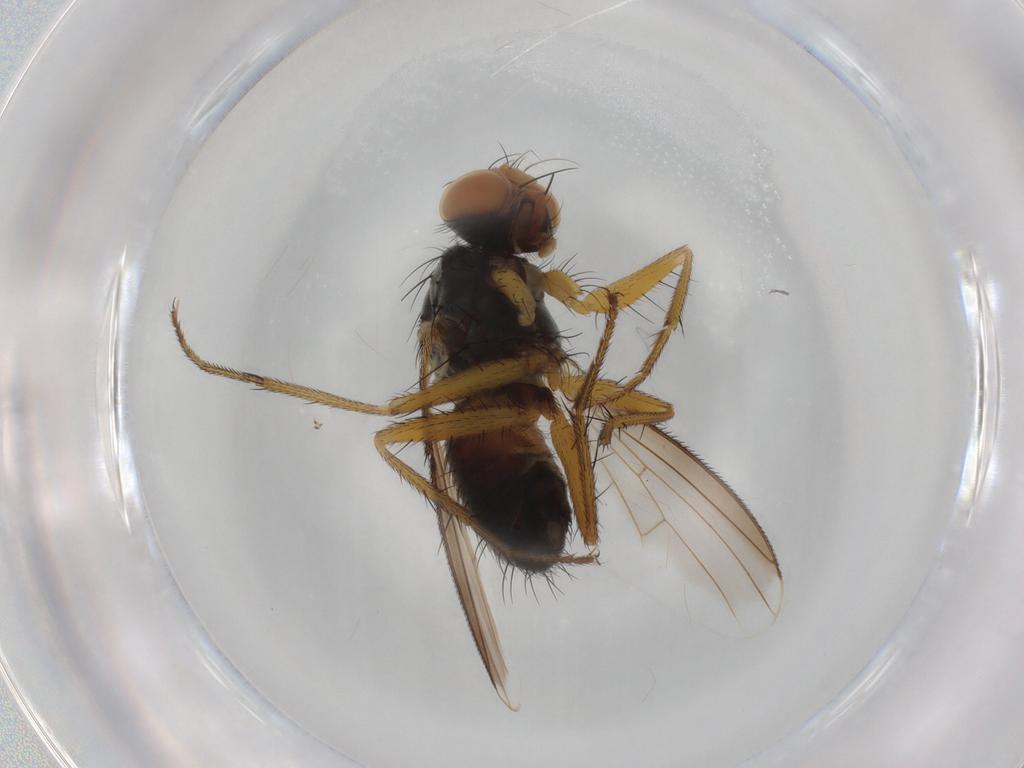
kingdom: Animalia
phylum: Arthropoda
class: Insecta
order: Diptera
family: Muscidae
